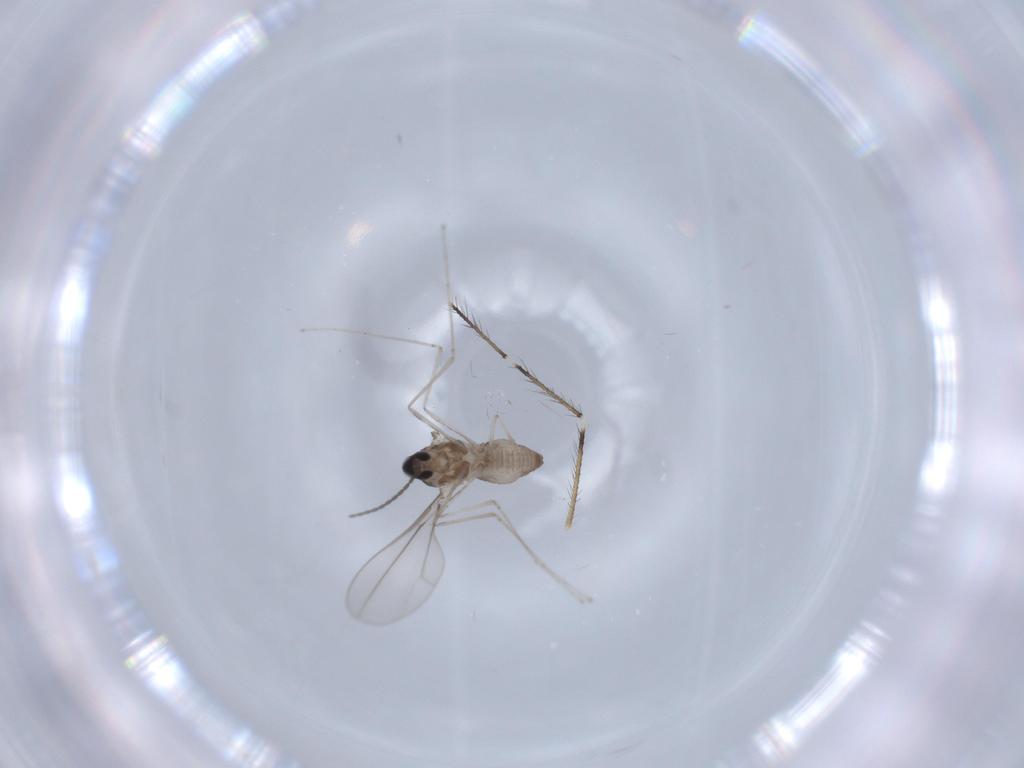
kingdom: Animalia
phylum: Arthropoda
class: Insecta
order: Diptera
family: Cecidomyiidae
